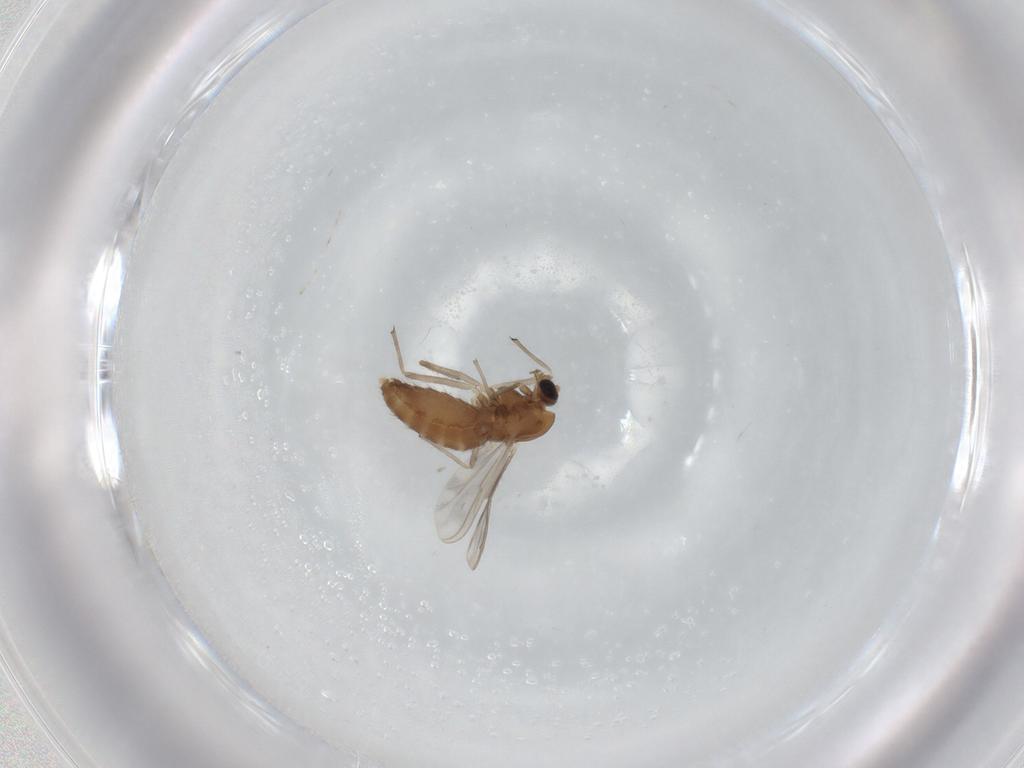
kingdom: Animalia
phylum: Arthropoda
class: Insecta
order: Diptera
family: Chironomidae
